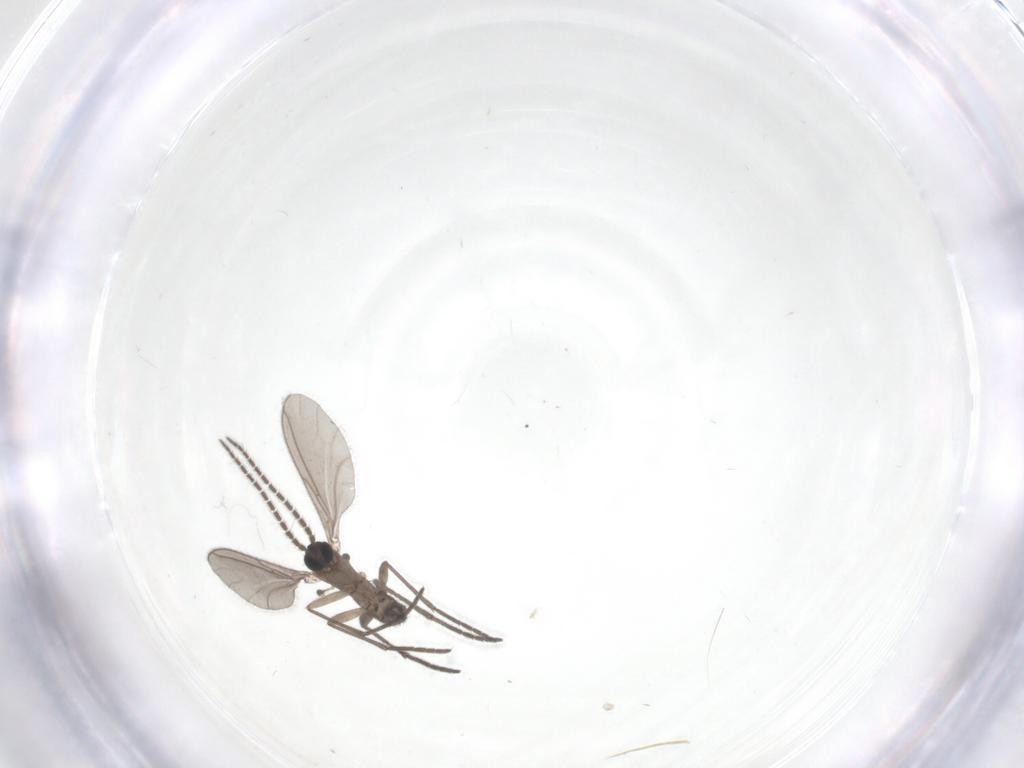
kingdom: Animalia
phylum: Arthropoda
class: Insecta
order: Diptera
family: Sciaridae
